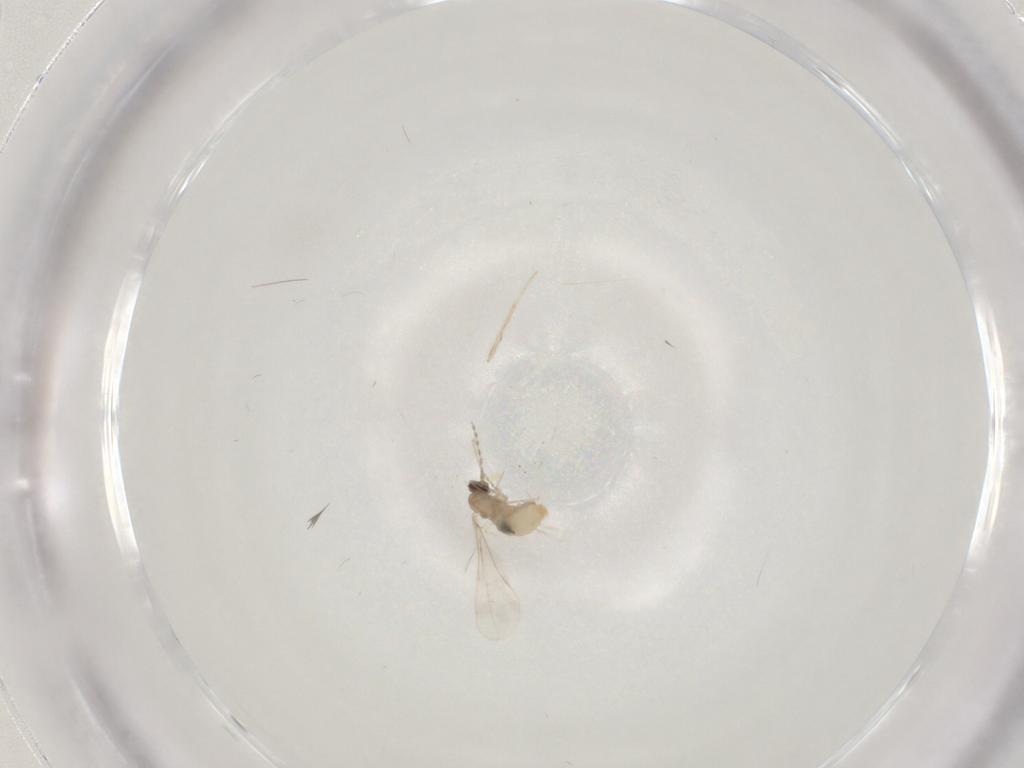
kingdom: Animalia
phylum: Arthropoda
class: Insecta
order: Diptera
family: Cecidomyiidae
